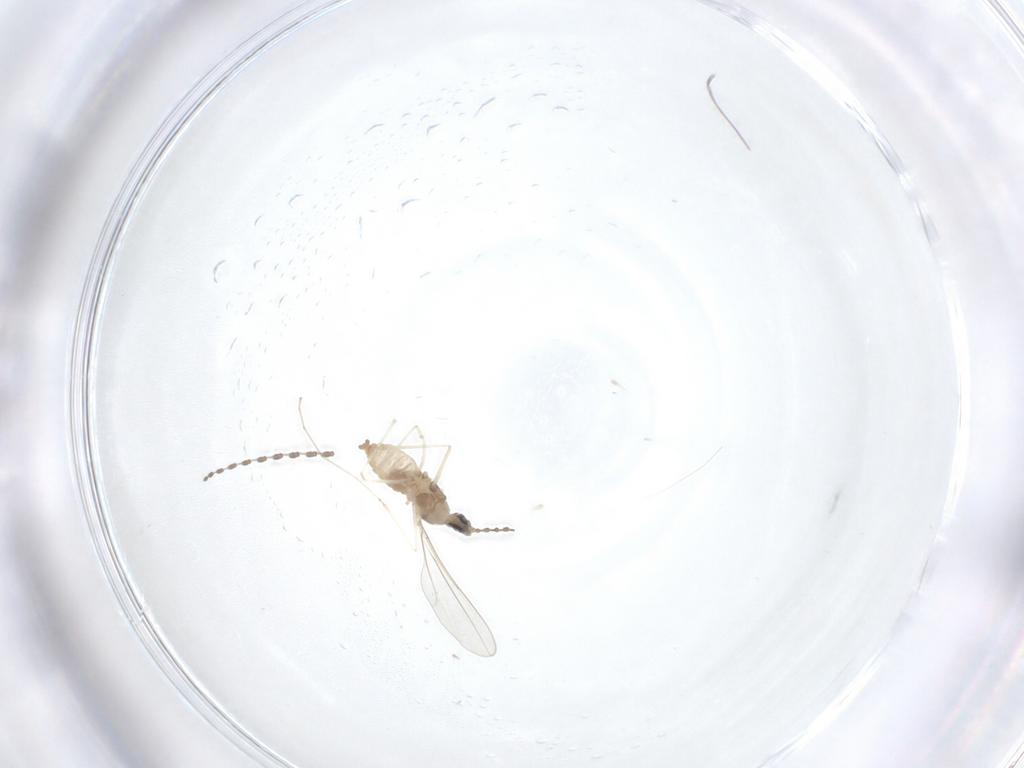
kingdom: Animalia
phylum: Arthropoda
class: Insecta
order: Diptera
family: Cecidomyiidae
